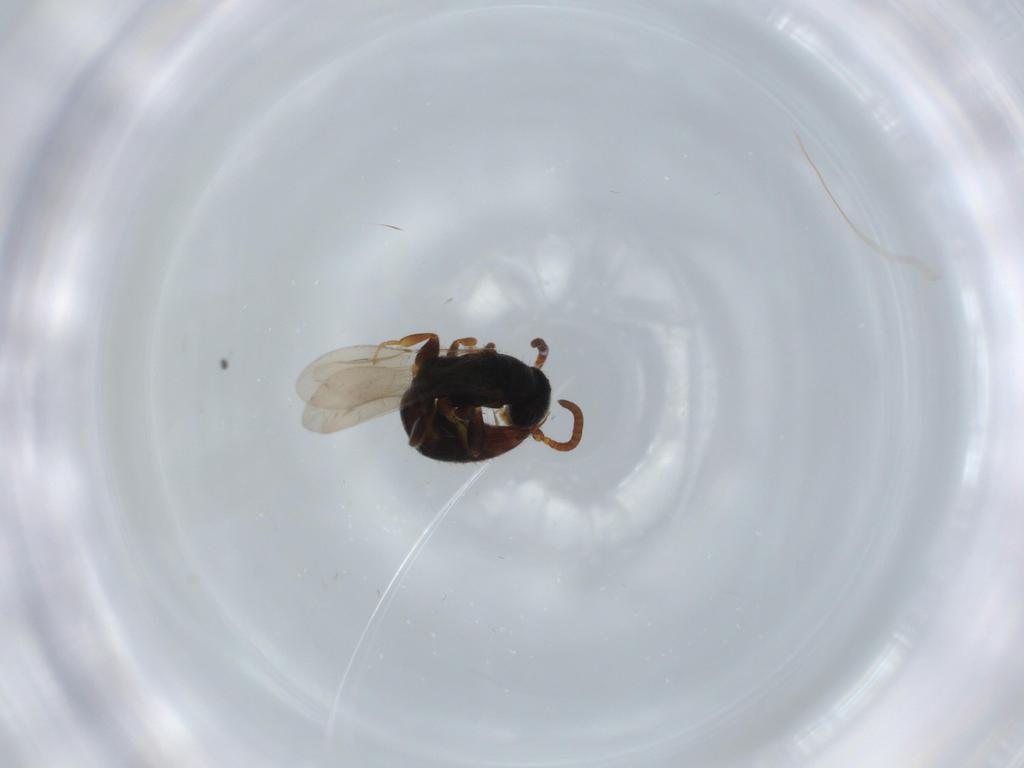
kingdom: Animalia
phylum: Arthropoda
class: Insecta
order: Hymenoptera
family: Bethylidae
